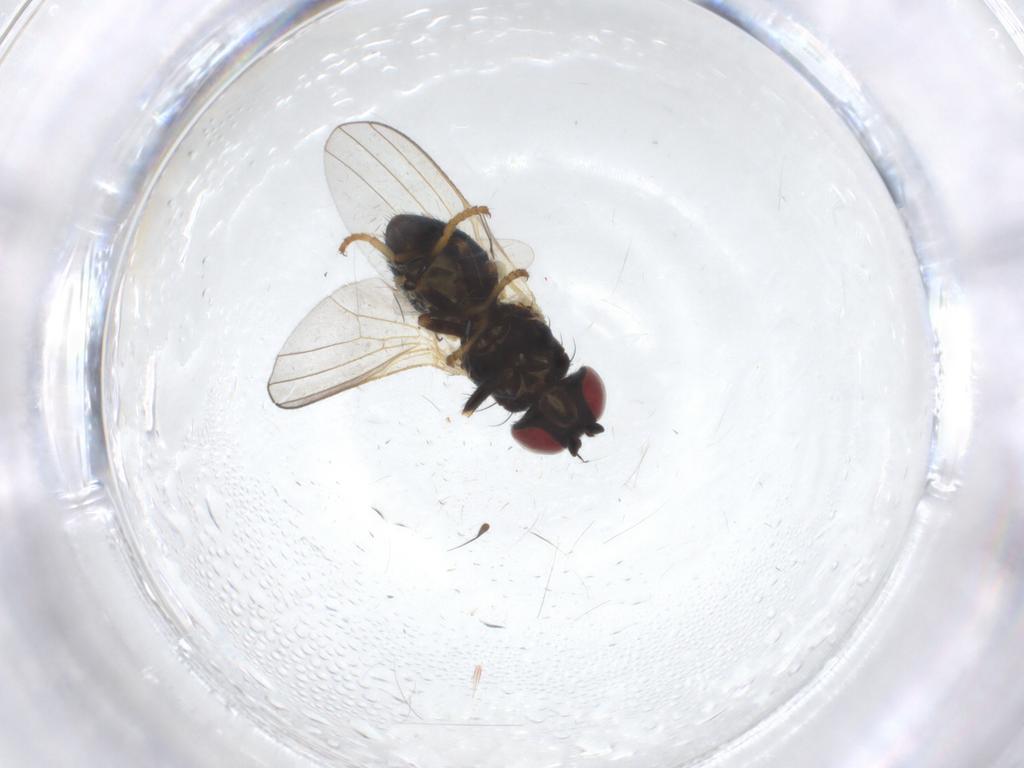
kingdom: Animalia
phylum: Arthropoda
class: Insecta
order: Diptera
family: Chamaemyiidae
